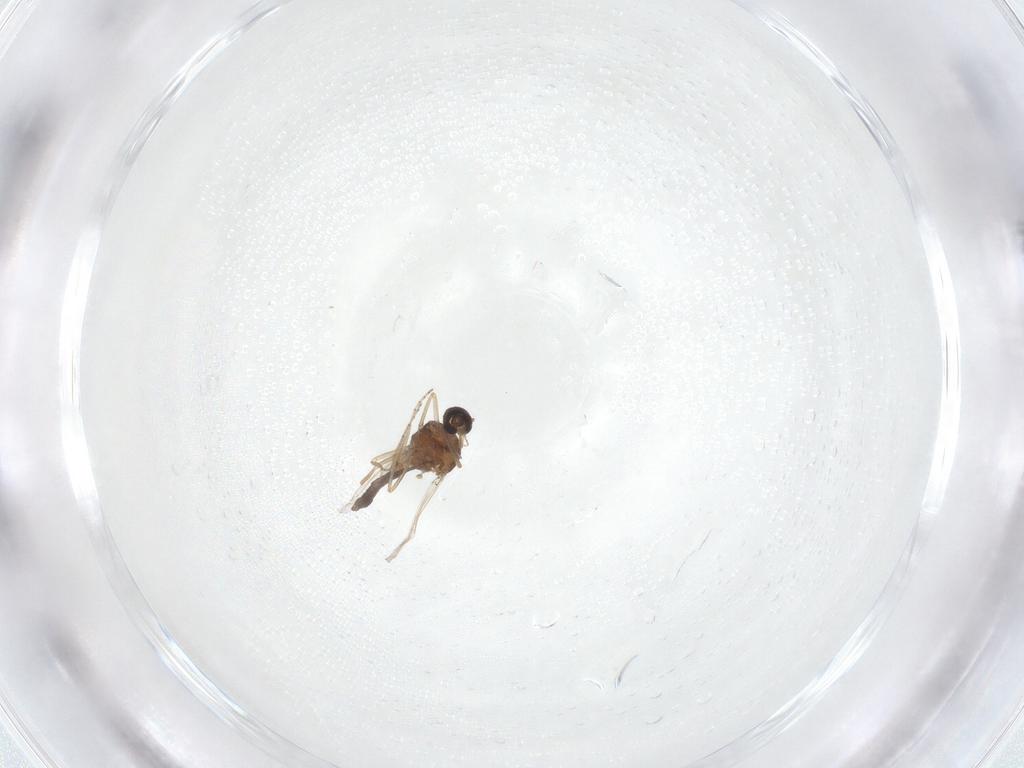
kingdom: Animalia
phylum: Arthropoda
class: Insecta
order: Diptera
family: Ceratopogonidae
